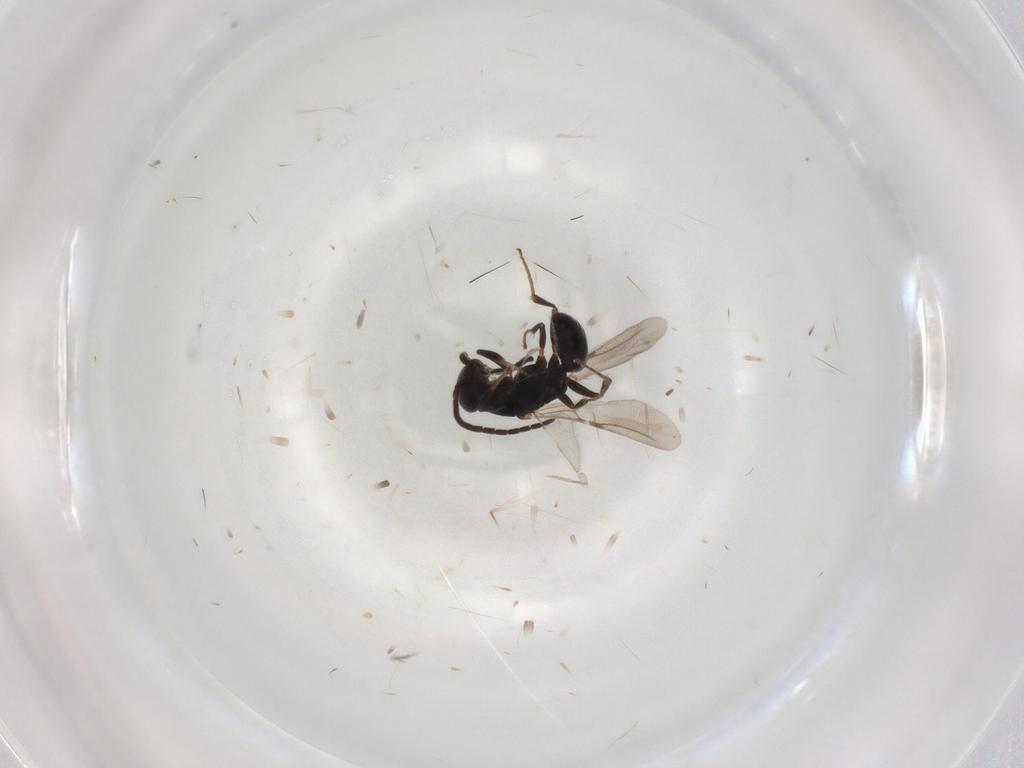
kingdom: Animalia
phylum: Arthropoda
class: Insecta
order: Hymenoptera
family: Bethylidae
